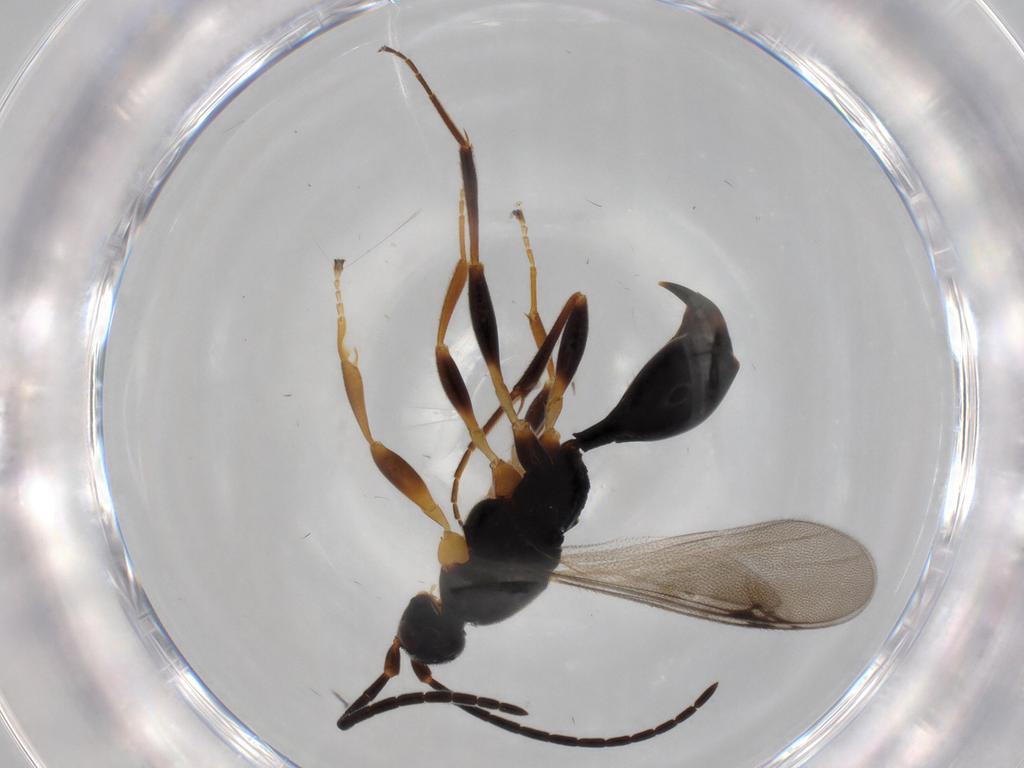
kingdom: Animalia
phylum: Arthropoda
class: Insecta
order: Hymenoptera
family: Proctotrupidae
